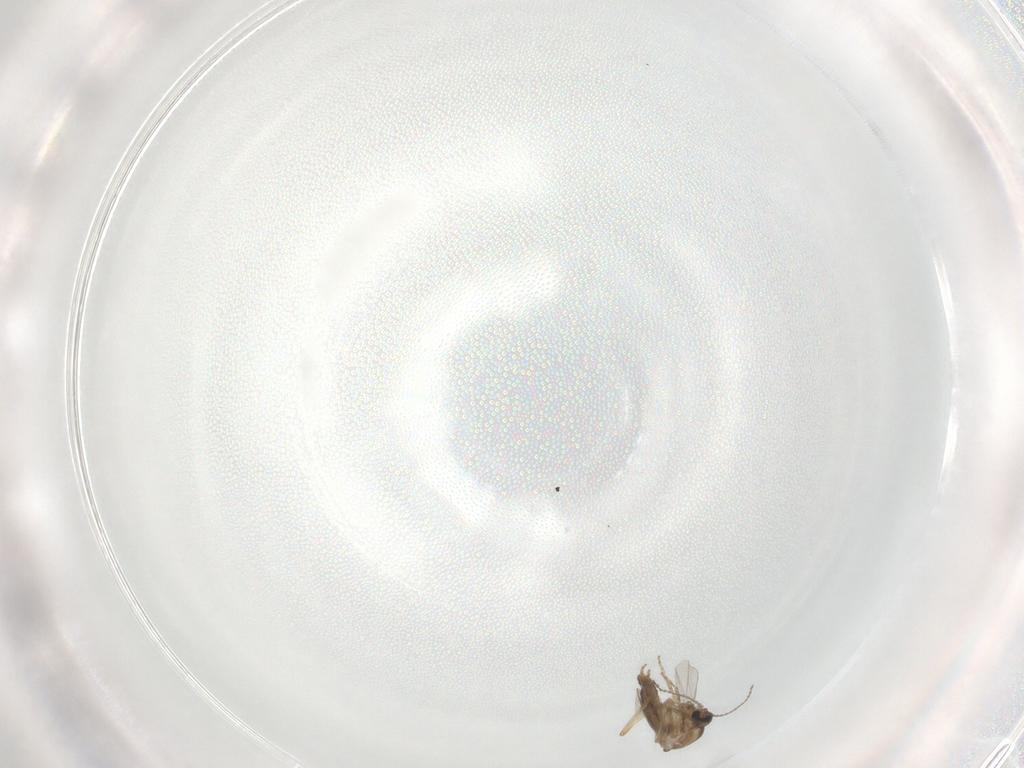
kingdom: Animalia
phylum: Arthropoda
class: Insecta
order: Diptera
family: Ceratopogonidae
